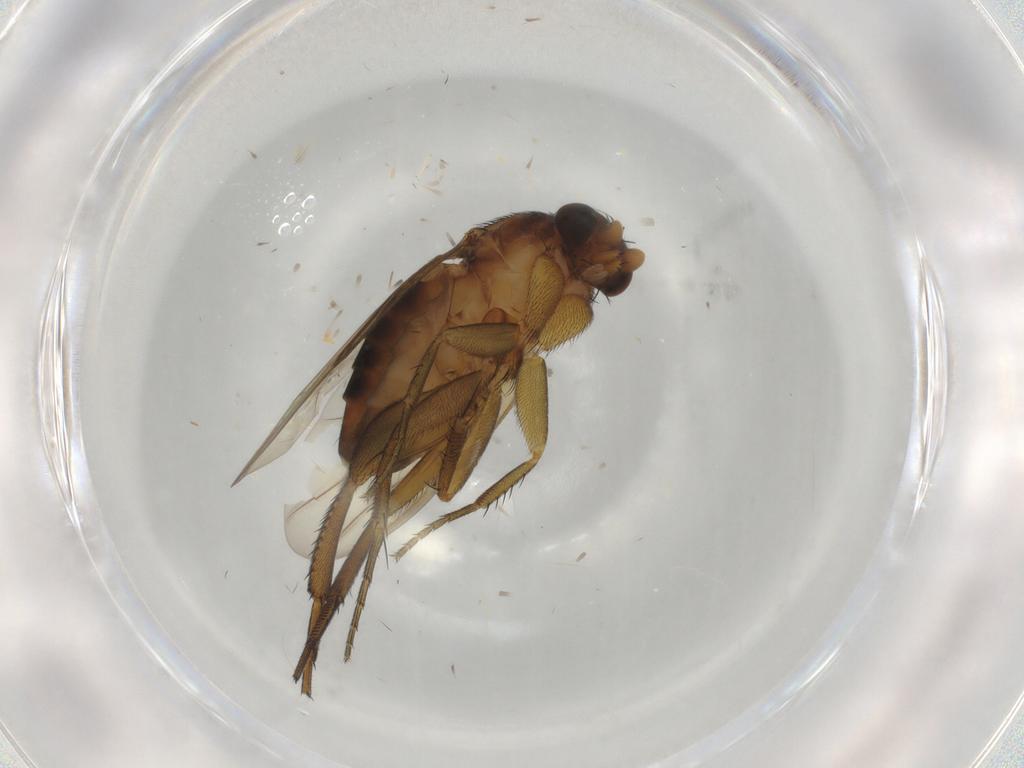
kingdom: Animalia
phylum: Arthropoda
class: Insecta
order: Diptera
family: Phoridae
